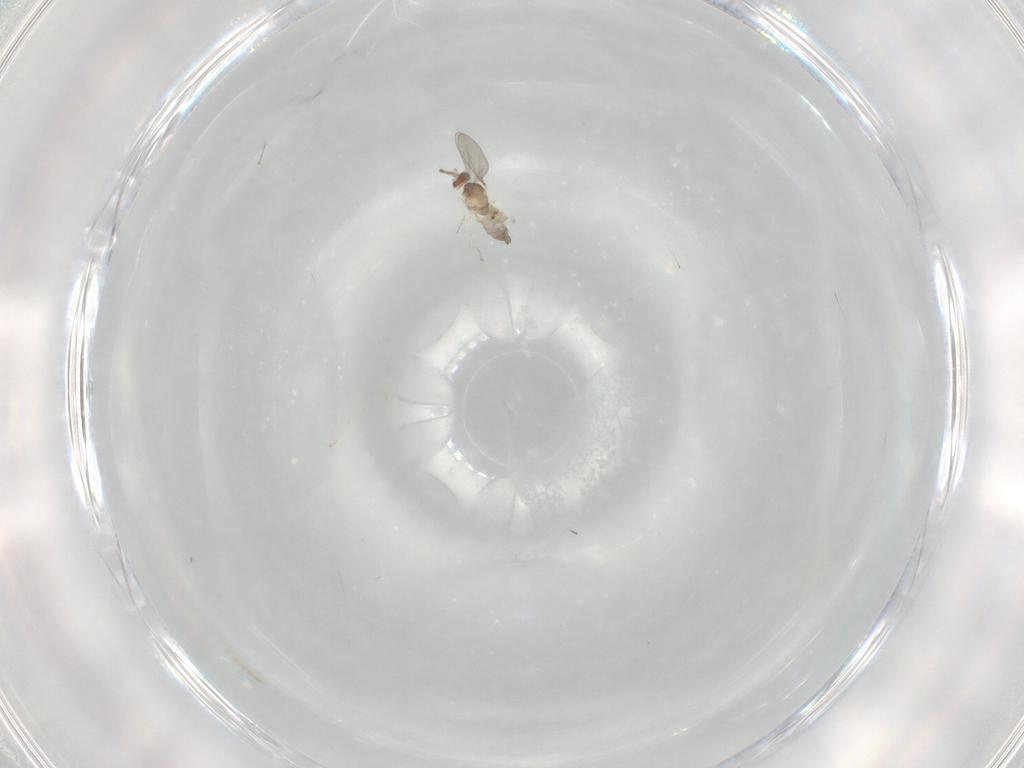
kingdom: Animalia
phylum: Arthropoda
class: Insecta
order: Diptera
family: Cecidomyiidae
